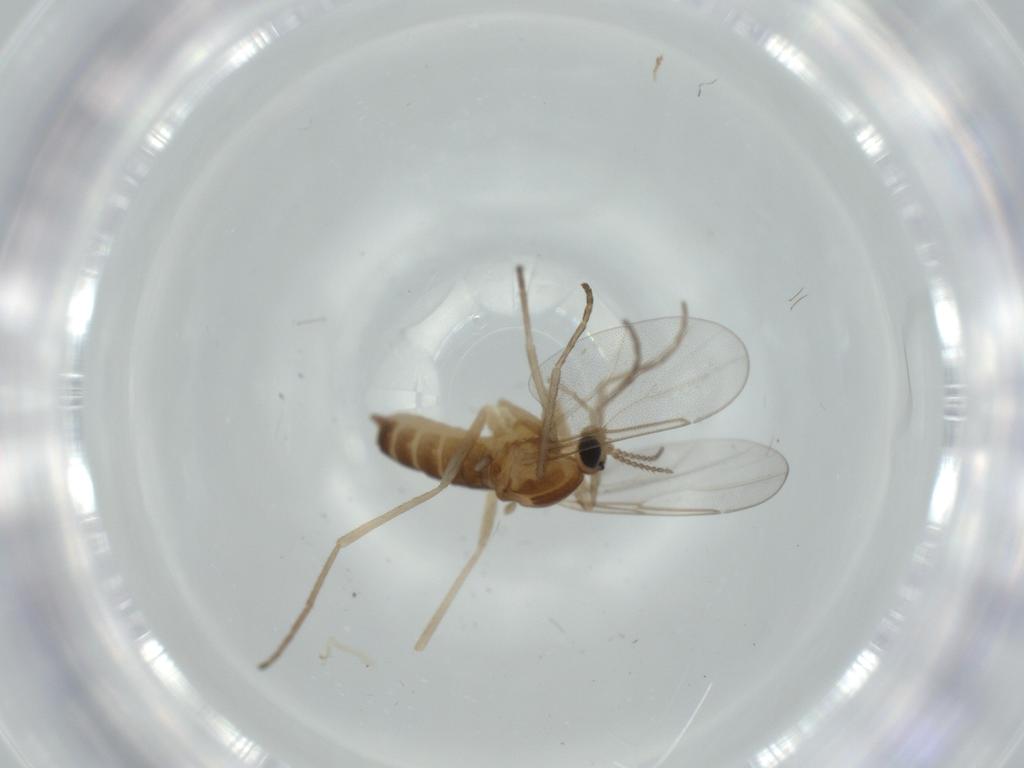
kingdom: Animalia
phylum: Arthropoda
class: Insecta
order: Diptera
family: Cecidomyiidae
